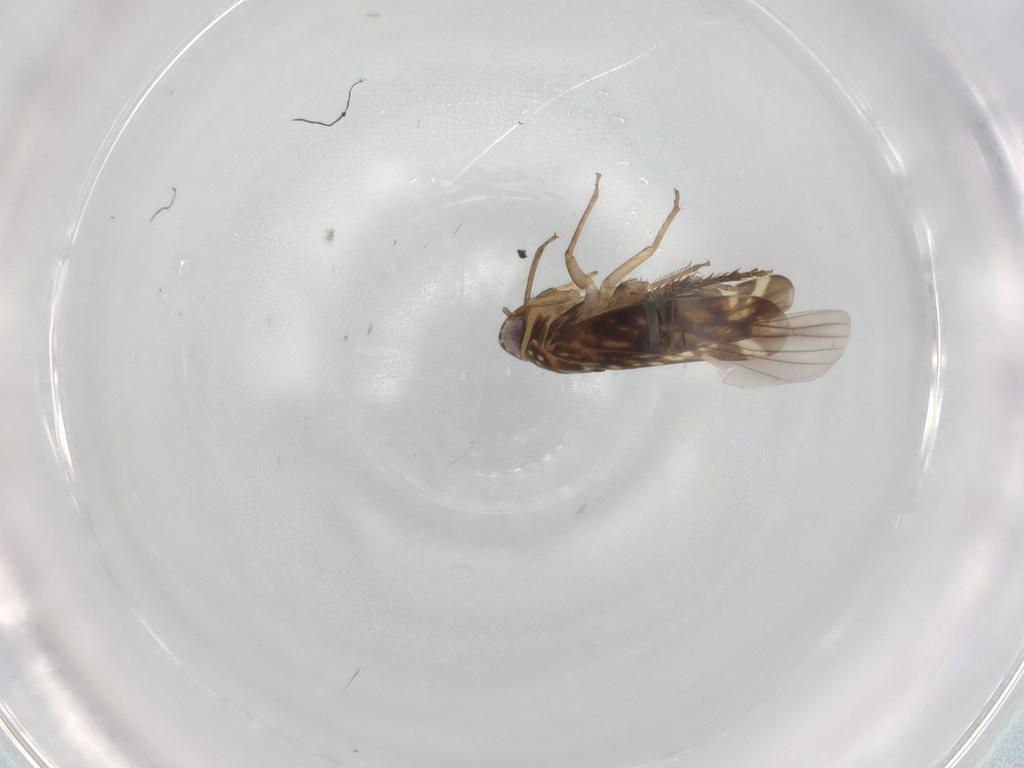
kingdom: Animalia
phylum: Arthropoda
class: Insecta
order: Hemiptera
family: Cicadellidae
